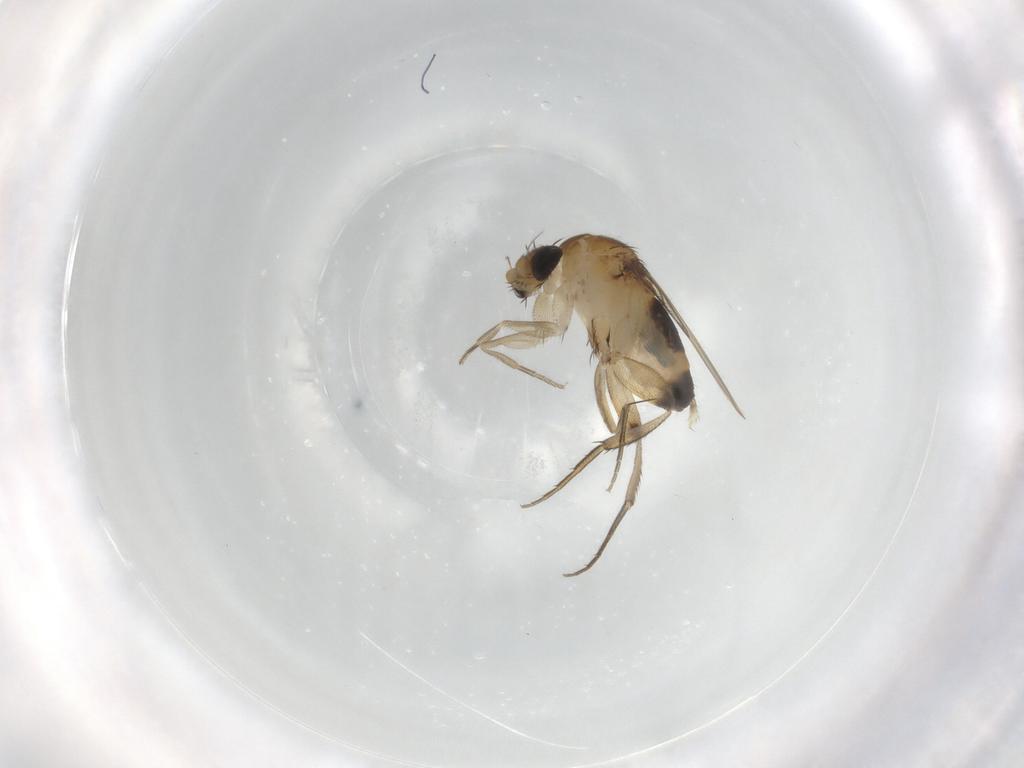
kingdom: Animalia
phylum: Arthropoda
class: Insecta
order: Diptera
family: Phoridae
